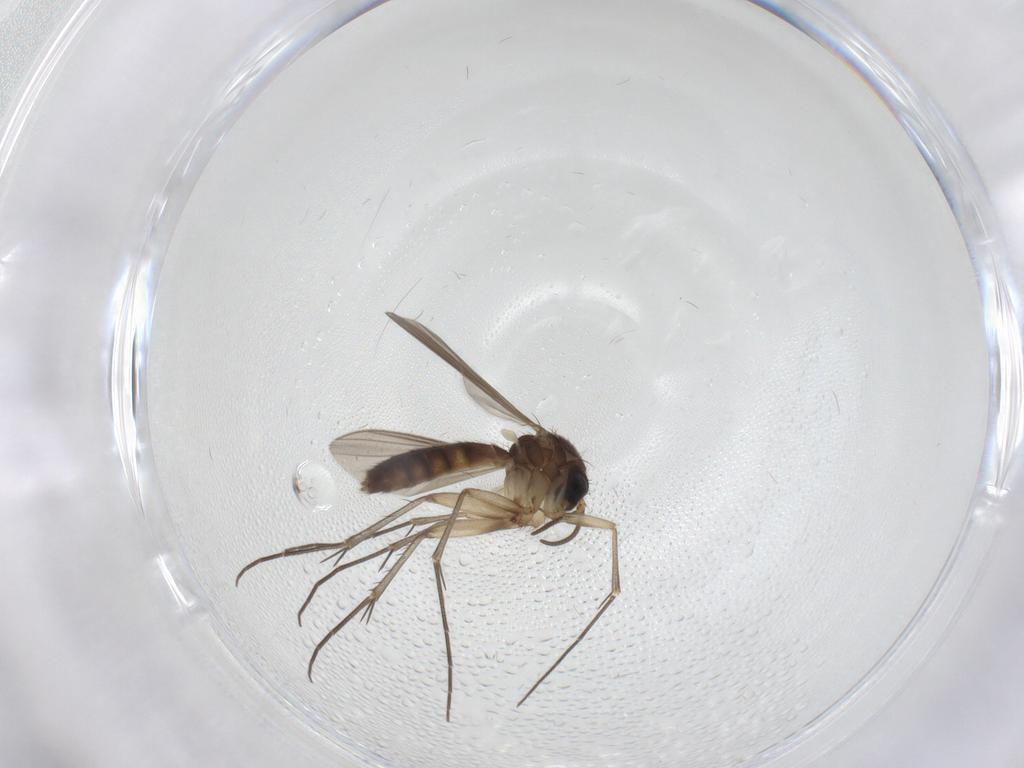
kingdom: Animalia
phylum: Arthropoda
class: Insecta
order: Diptera
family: Mycetophilidae
